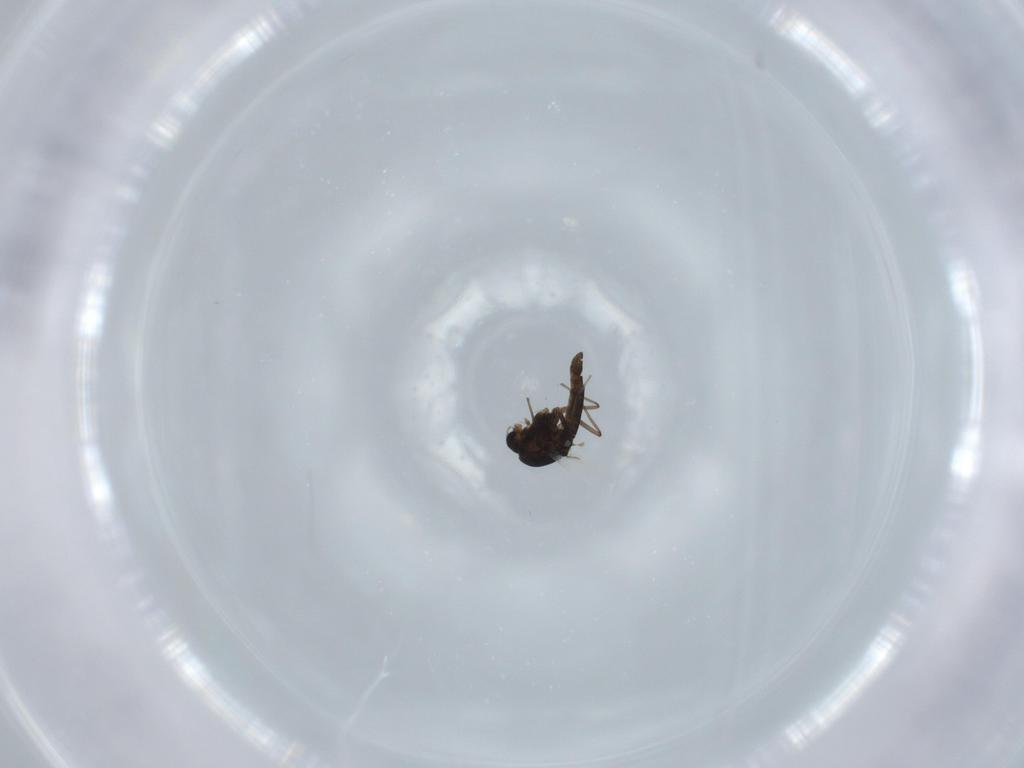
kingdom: Animalia
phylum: Arthropoda
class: Insecta
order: Diptera
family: Chironomidae
